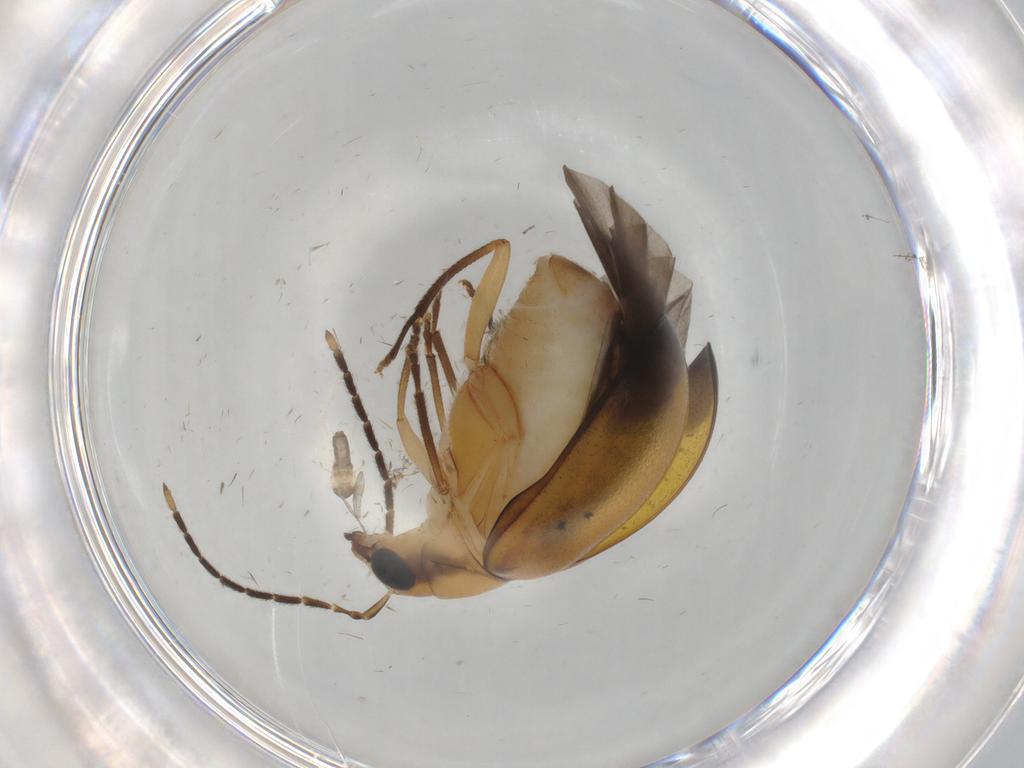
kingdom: Animalia
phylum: Arthropoda
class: Insecta
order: Coleoptera
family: Chrysomelidae
